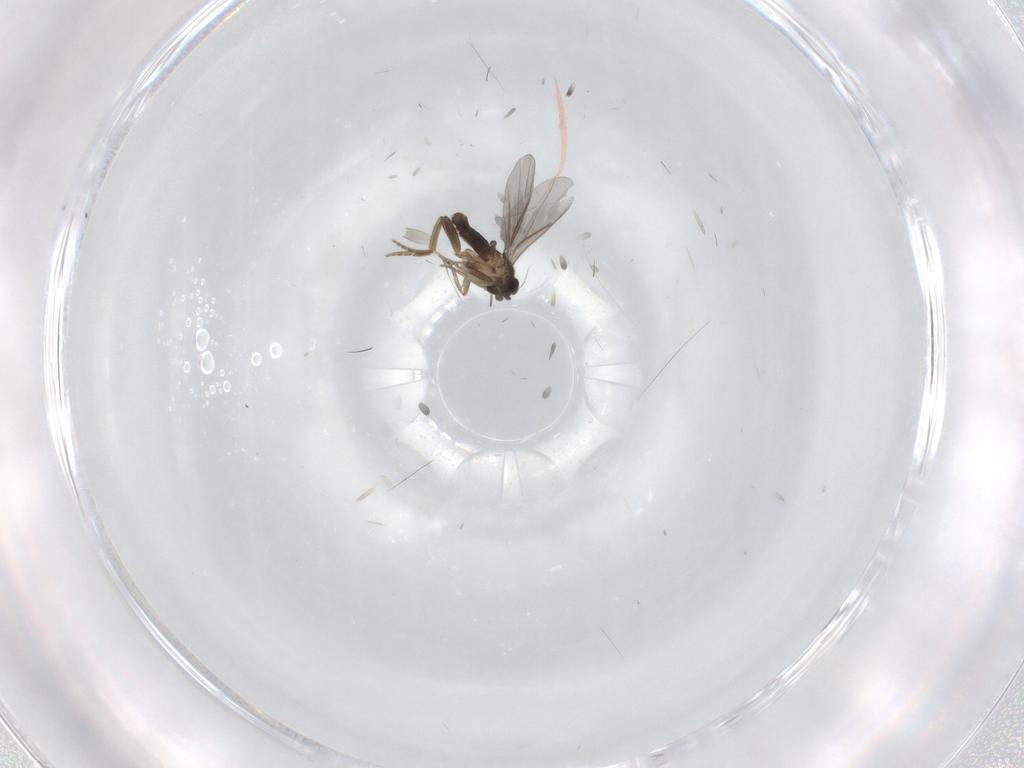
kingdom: Animalia
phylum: Arthropoda
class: Insecta
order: Diptera
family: Cecidomyiidae
